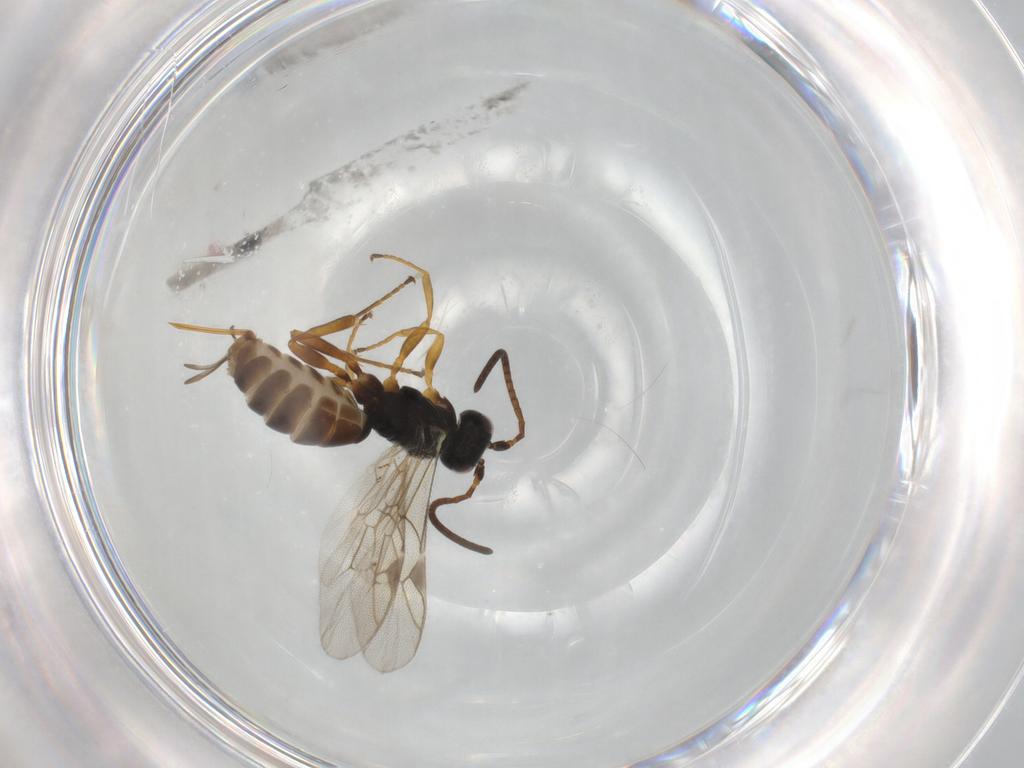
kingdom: Animalia
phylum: Arthropoda
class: Insecta
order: Hymenoptera
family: Ichneumonidae
